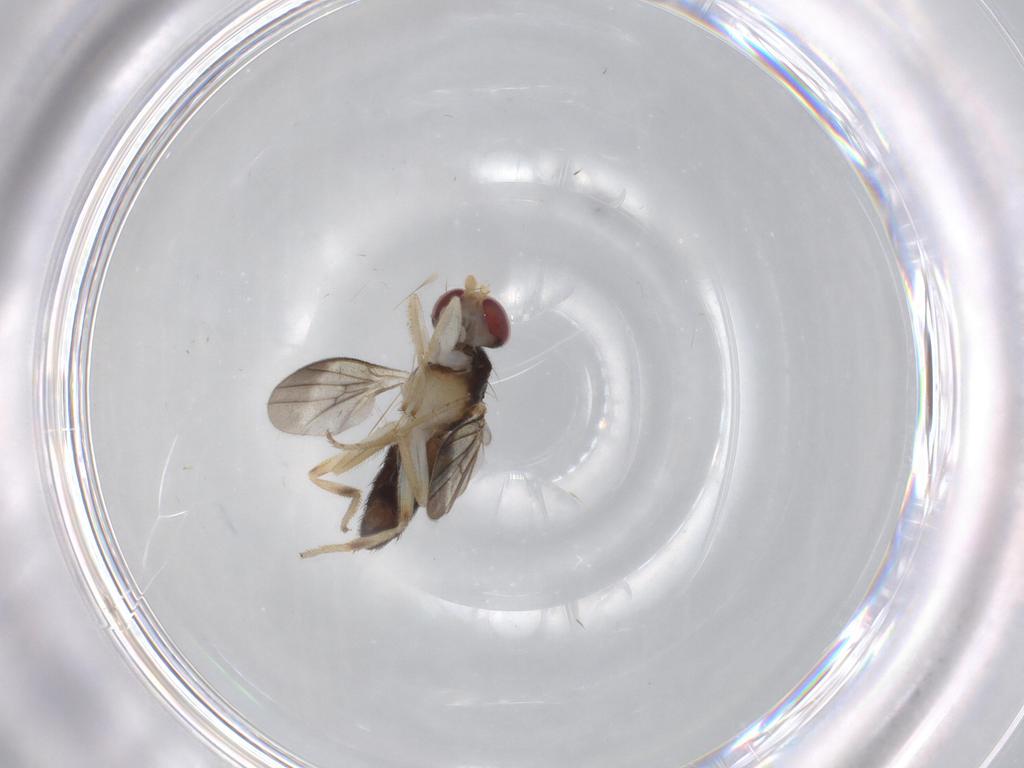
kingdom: Animalia
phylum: Arthropoda
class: Insecta
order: Diptera
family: Clusiidae
